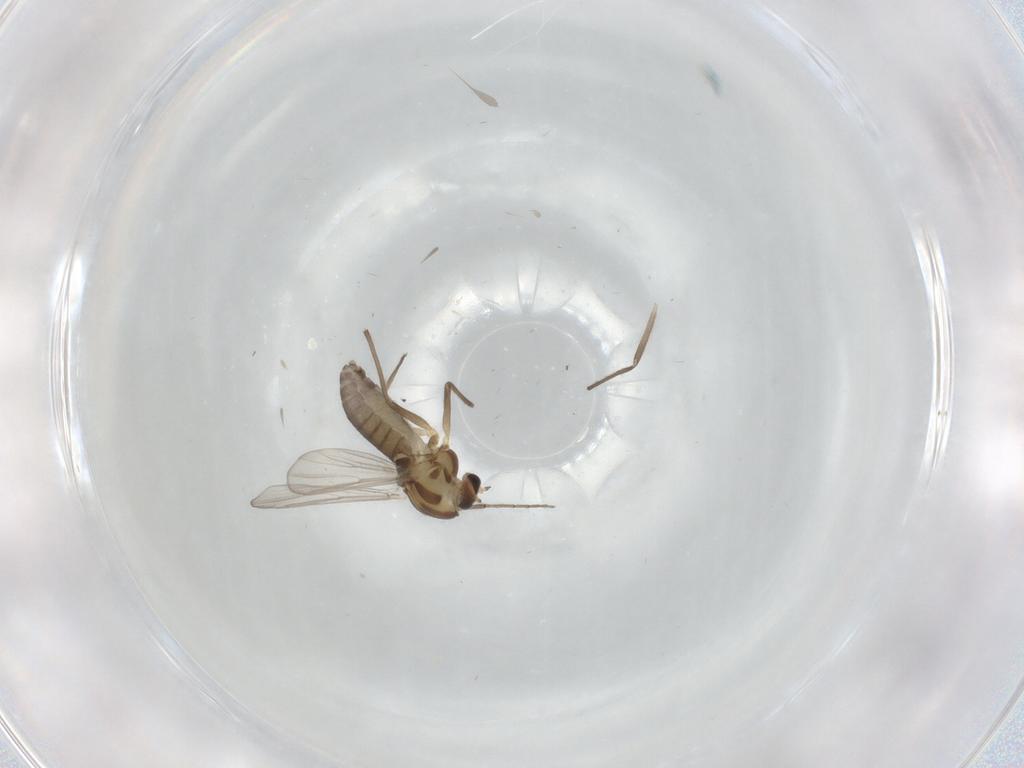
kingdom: Animalia
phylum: Arthropoda
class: Insecta
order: Diptera
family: Chironomidae
